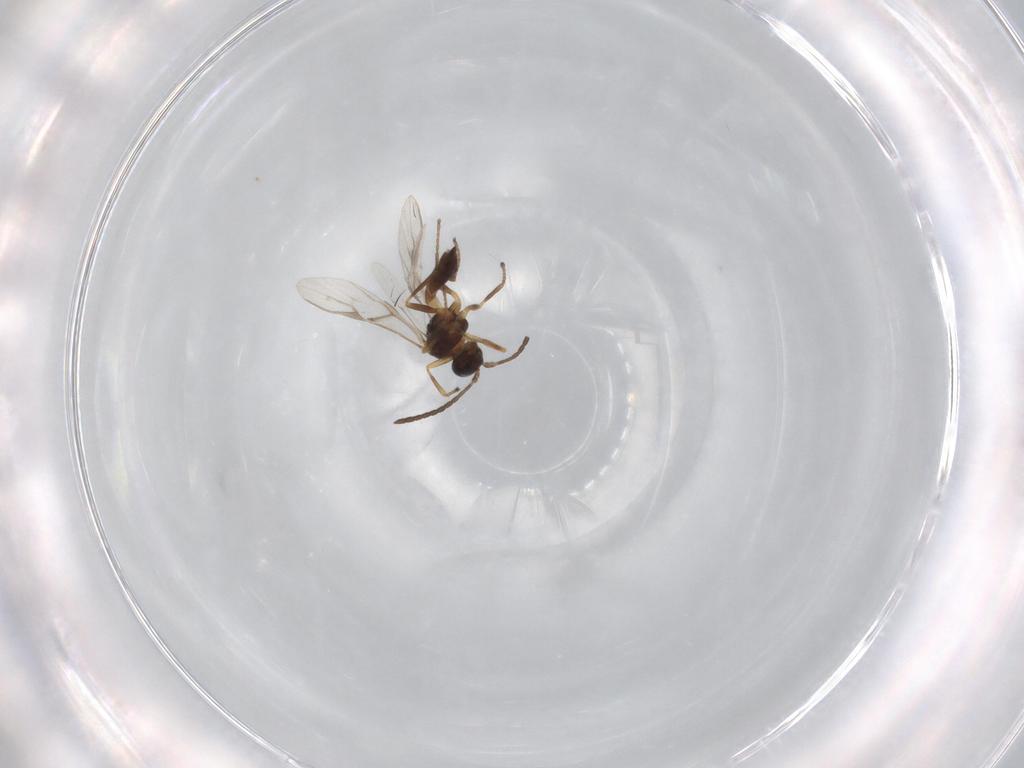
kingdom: Animalia
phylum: Arthropoda
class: Insecta
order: Hymenoptera
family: Braconidae
